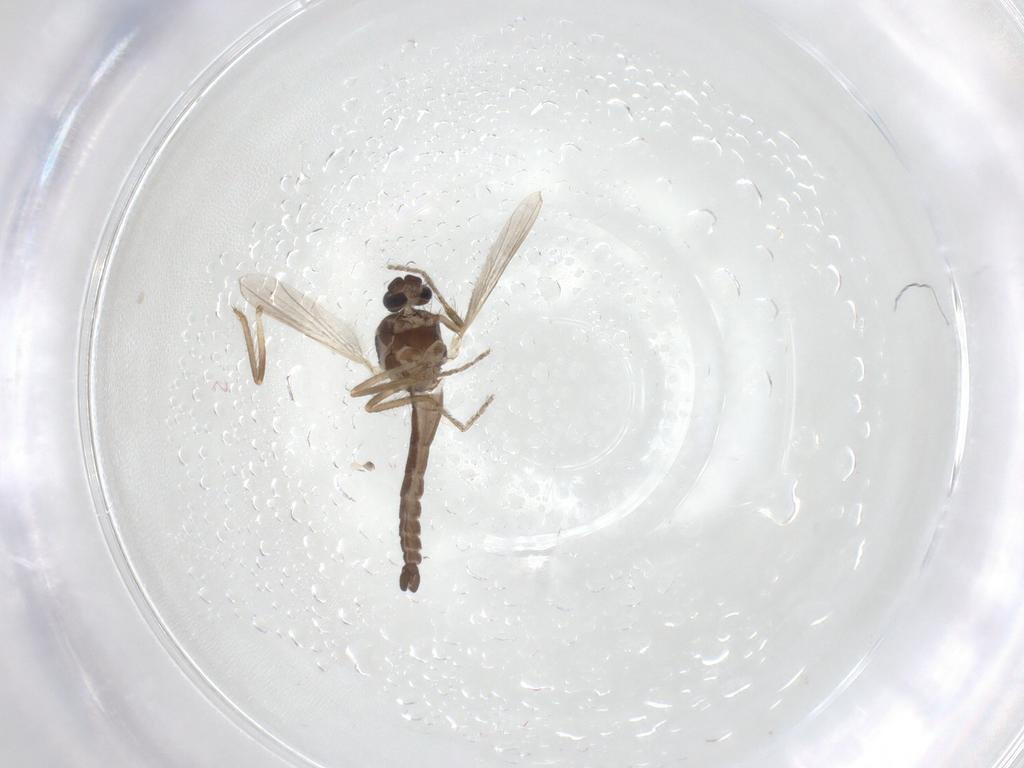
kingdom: Animalia
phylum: Arthropoda
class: Insecta
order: Diptera
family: Ceratopogonidae
